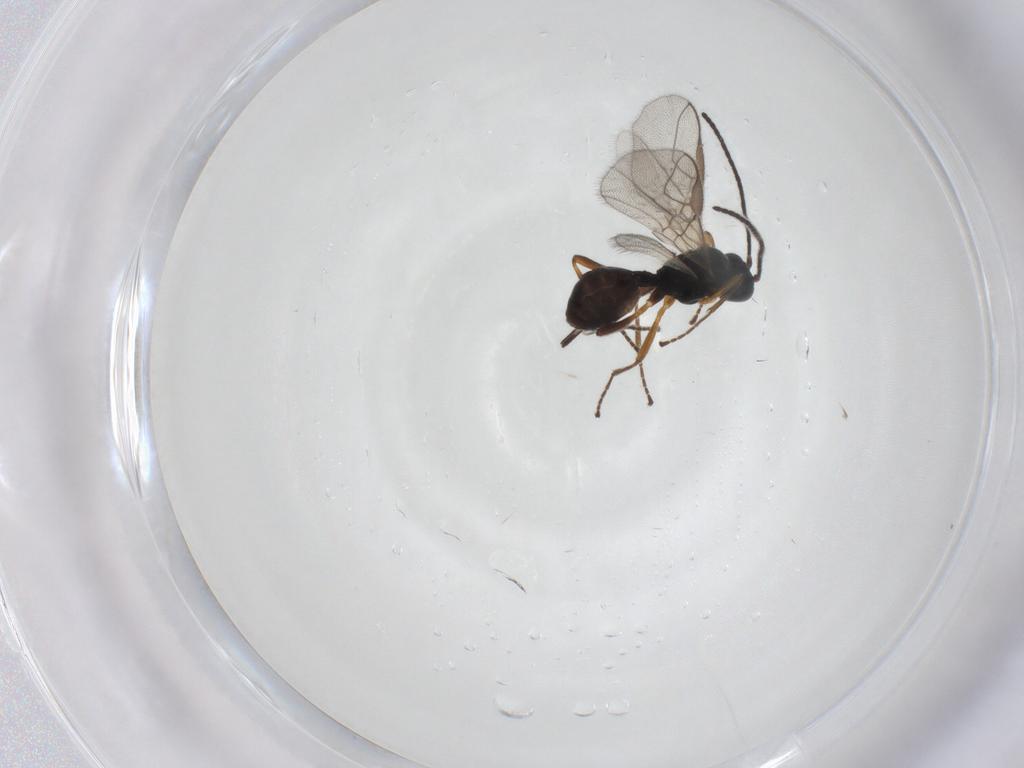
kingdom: Animalia
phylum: Arthropoda
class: Insecta
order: Hymenoptera
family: Braconidae
